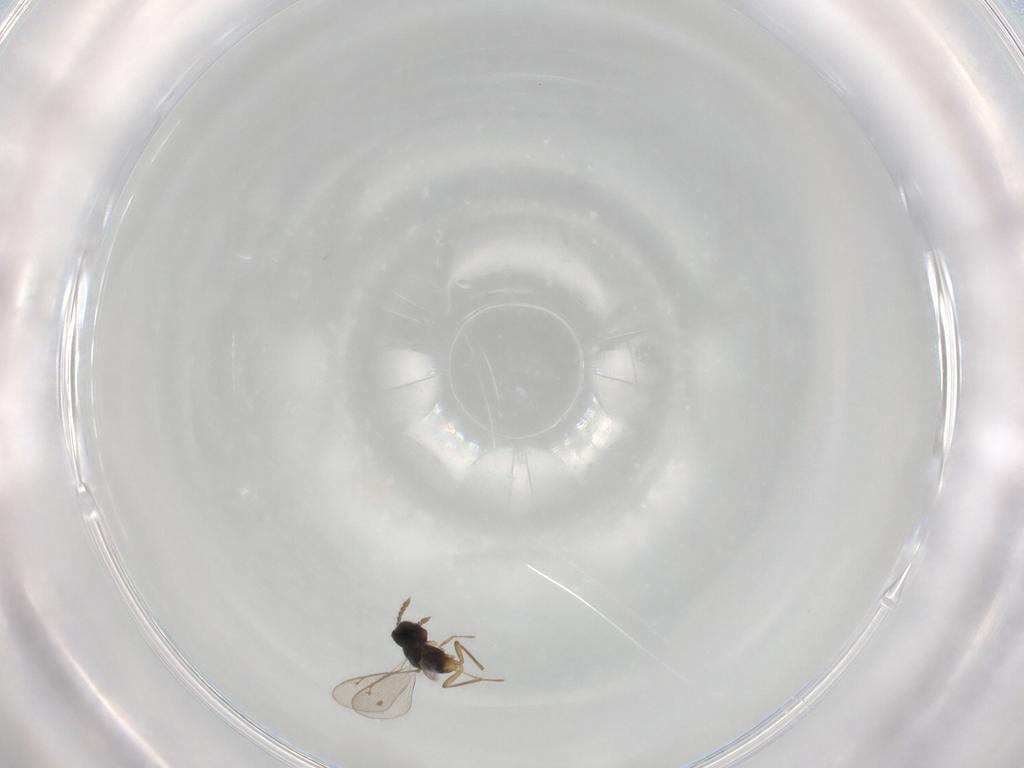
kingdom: Animalia
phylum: Arthropoda
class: Insecta
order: Hymenoptera
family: Eulophidae
